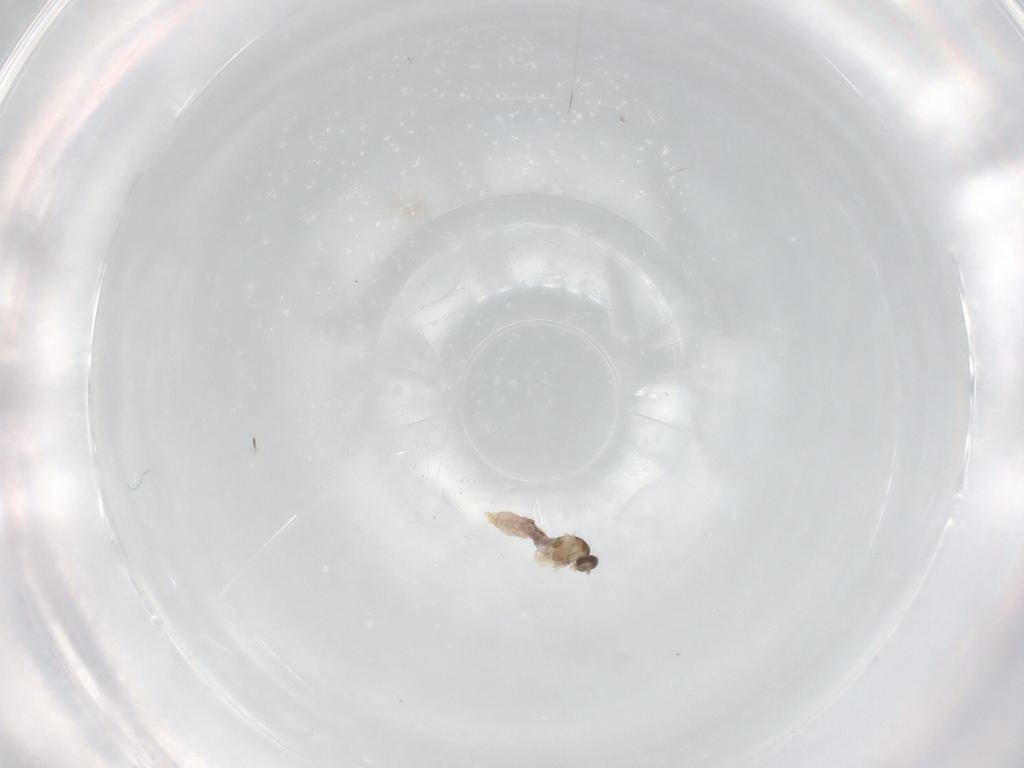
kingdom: Animalia
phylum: Arthropoda
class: Insecta
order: Diptera
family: Cecidomyiidae
